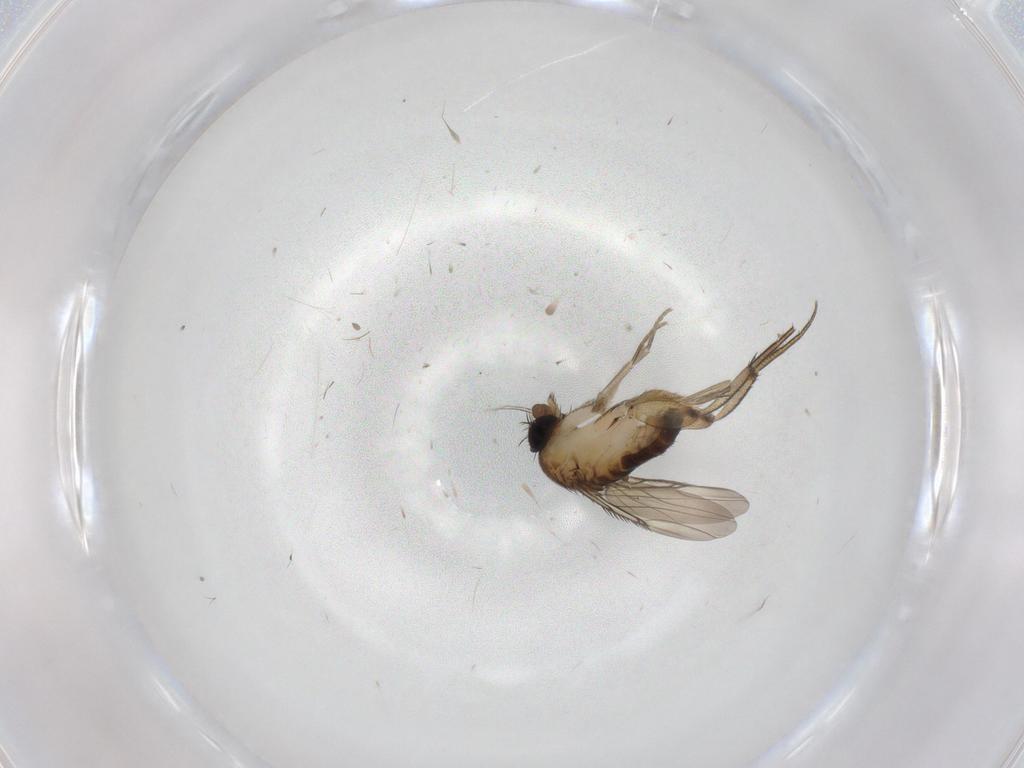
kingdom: Animalia
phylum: Arthropoda
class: Insecta
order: Diptera
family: Phoridae
